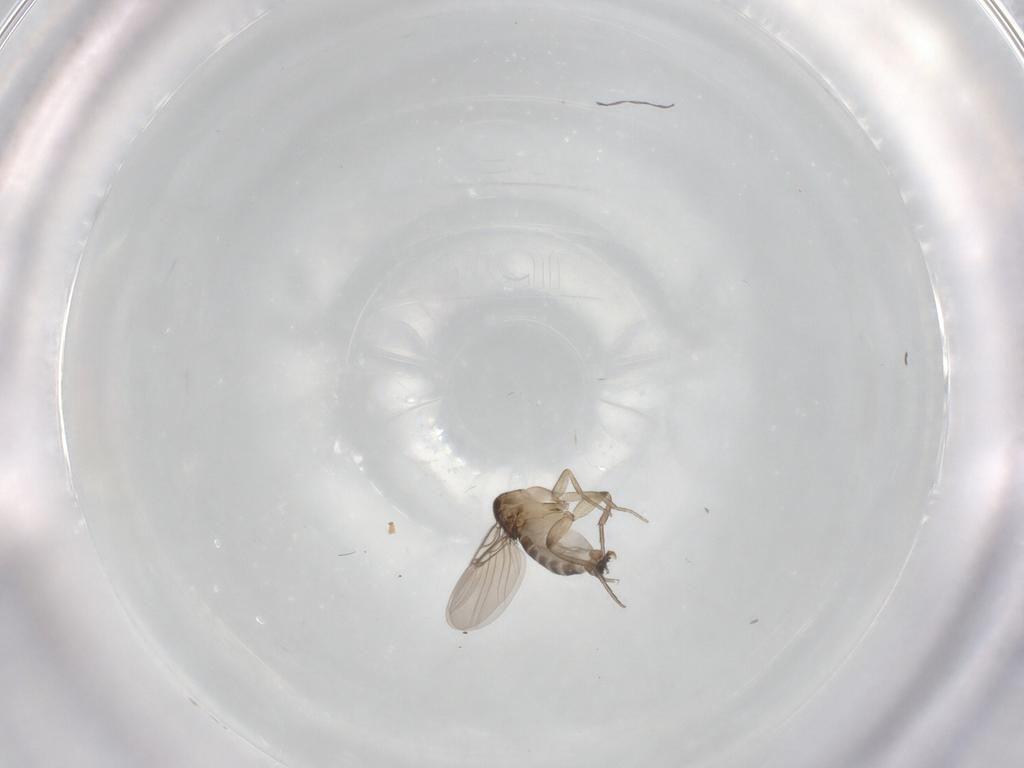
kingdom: Animalia
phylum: Arthropoda
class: Insecta
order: Diptera
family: Phoridae
